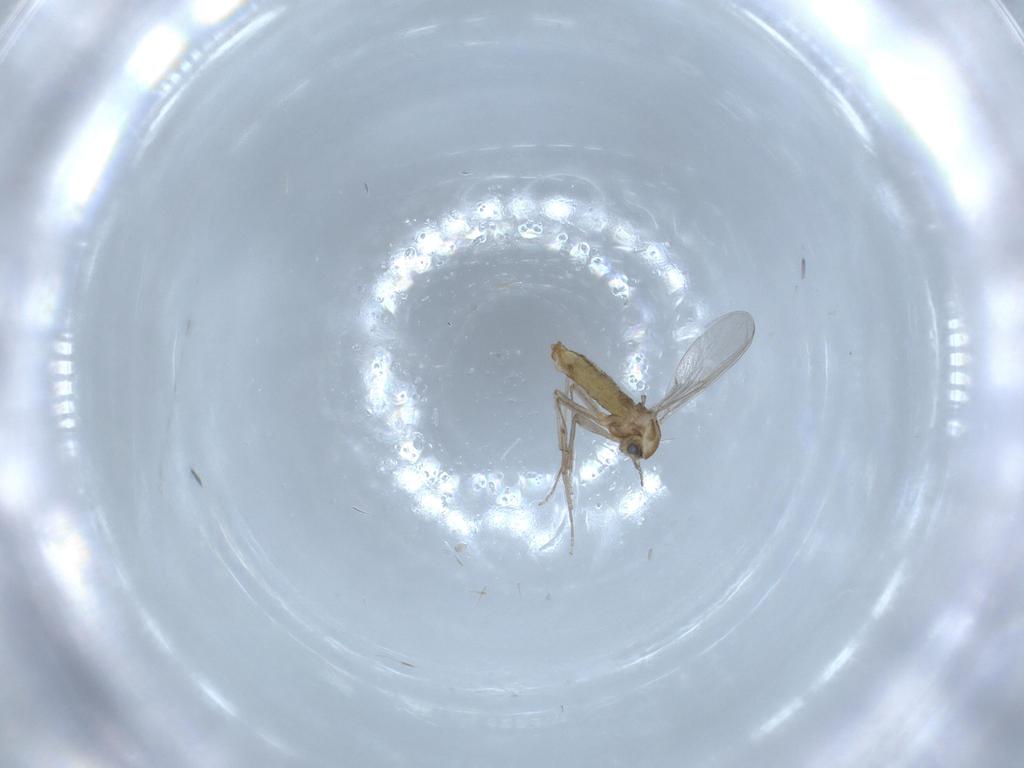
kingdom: Animalia
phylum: Arthropoda
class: Insecta
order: Diptera
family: Chironomidae
